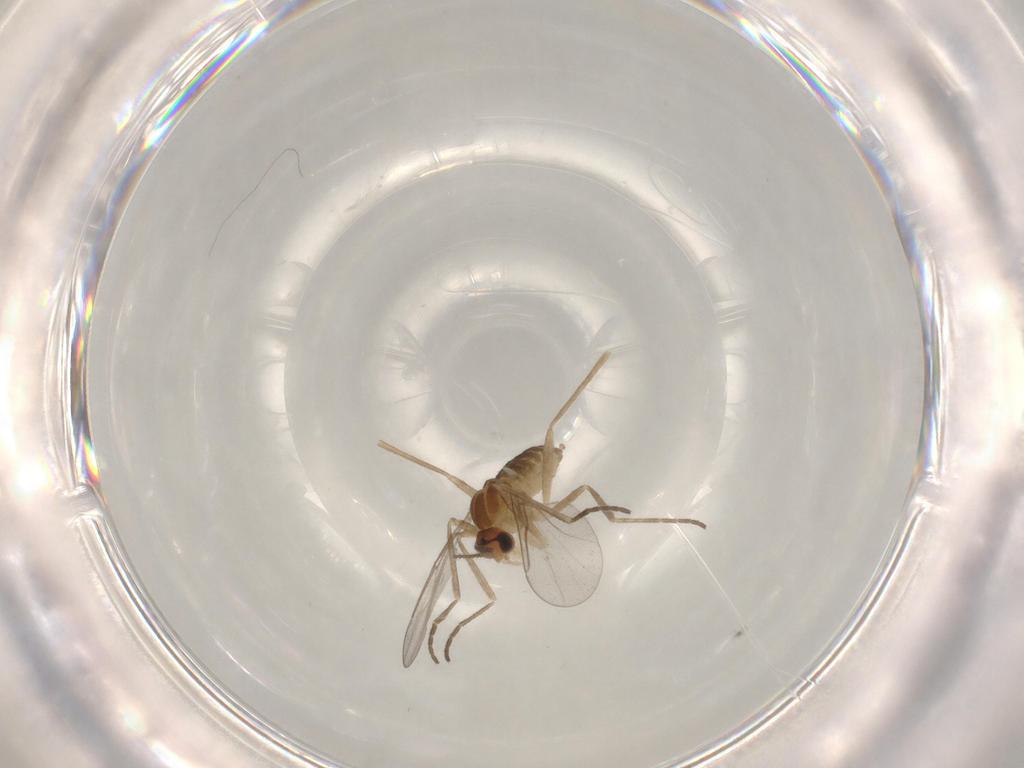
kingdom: Animalia
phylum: Arthropoda
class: Insecta
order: Diptera
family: Cecidomyiidae
